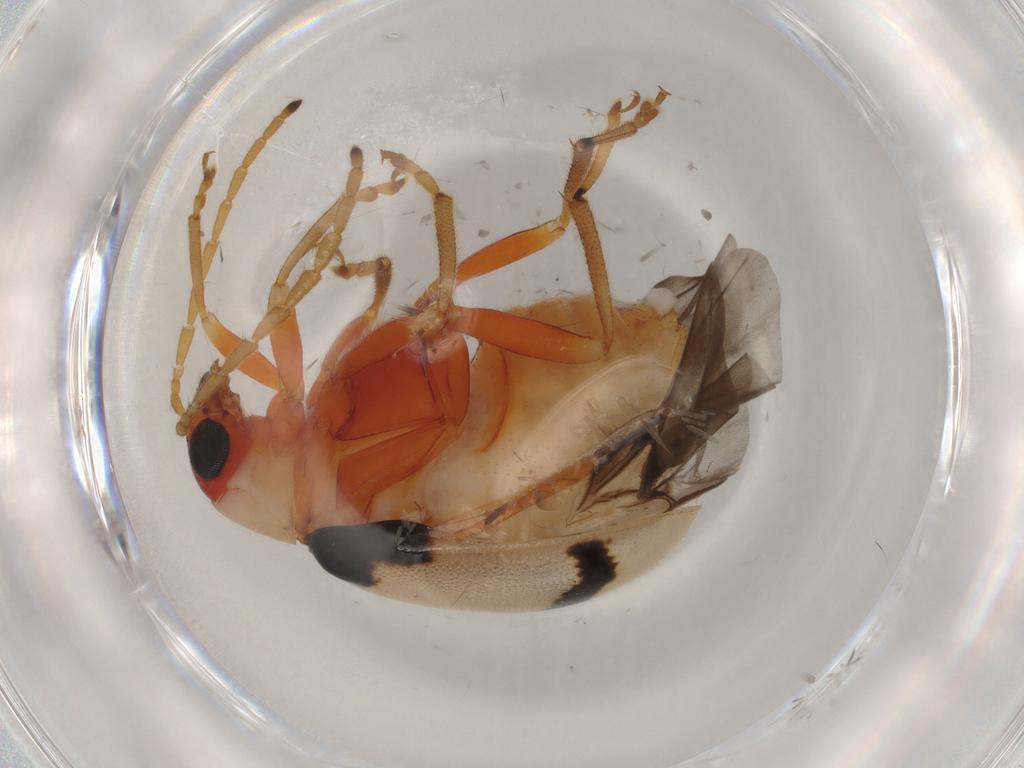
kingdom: Animalia
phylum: Arthropoda
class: Insecta
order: Coleoptera
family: Chrysomelidae
